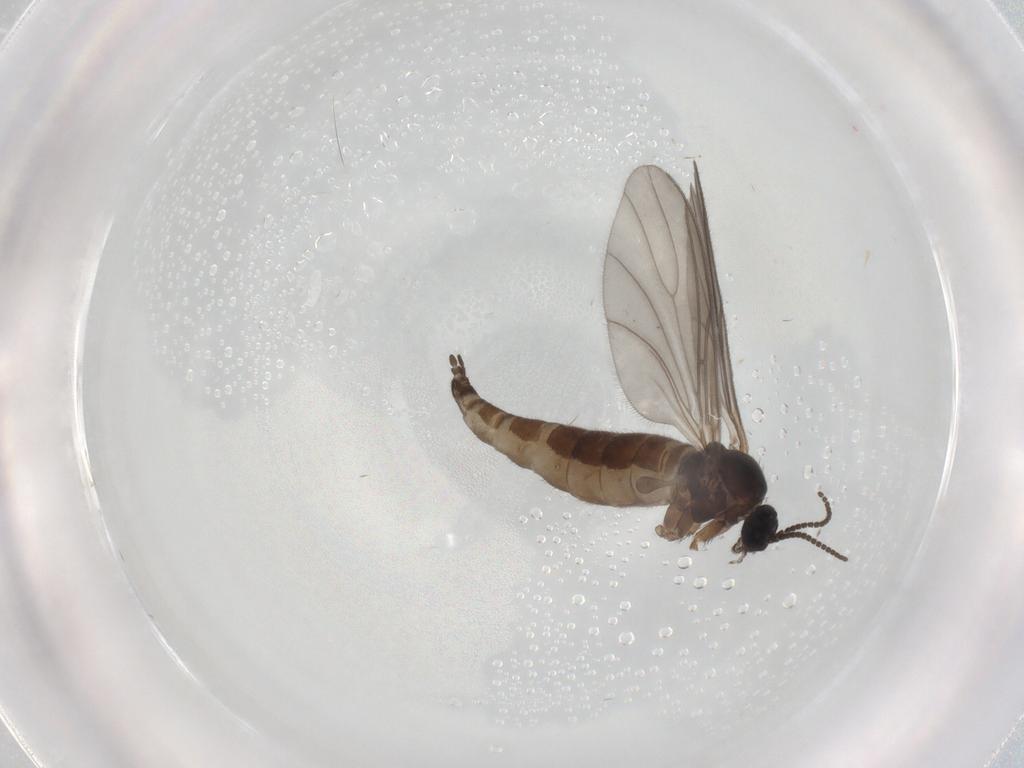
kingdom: Animalia
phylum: Arthropoda
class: Insecta
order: Diptera
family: Sciaridae
